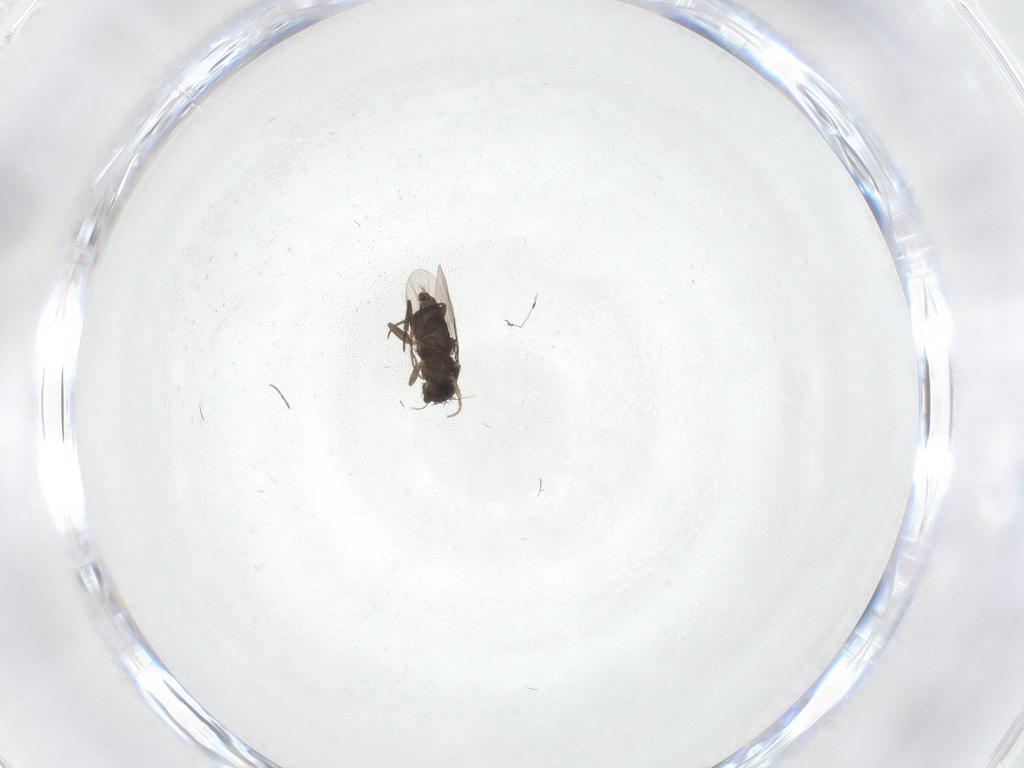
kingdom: Animalia
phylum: Arthropoda
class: Insecta
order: Diptera
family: Phoridae
